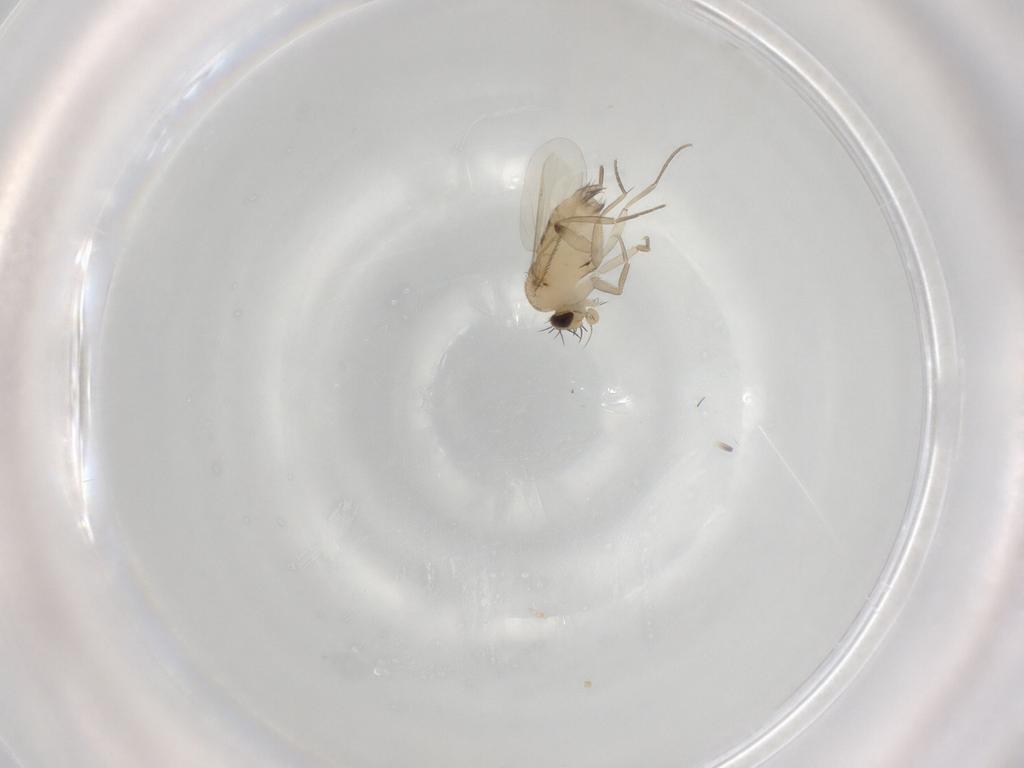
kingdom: Animalia
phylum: Arthropoda
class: Insecta
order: Diptera
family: Phoridae
